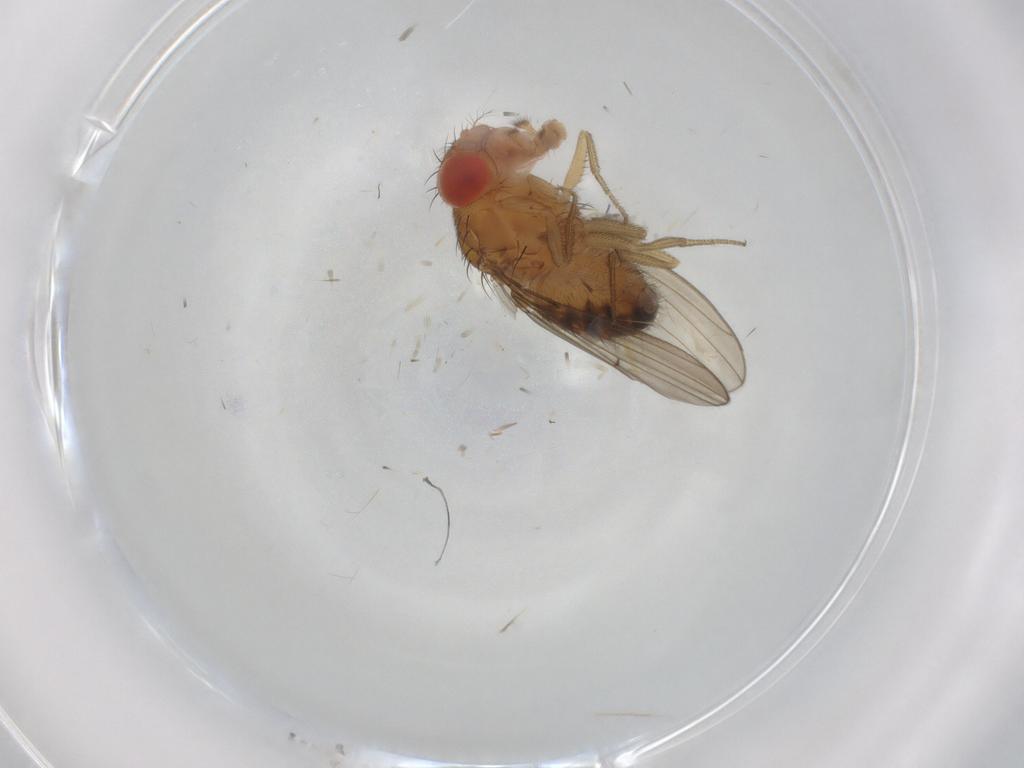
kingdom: Animalia
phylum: Arthropoda
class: Insecta
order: Diptera
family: Drosophilidae
